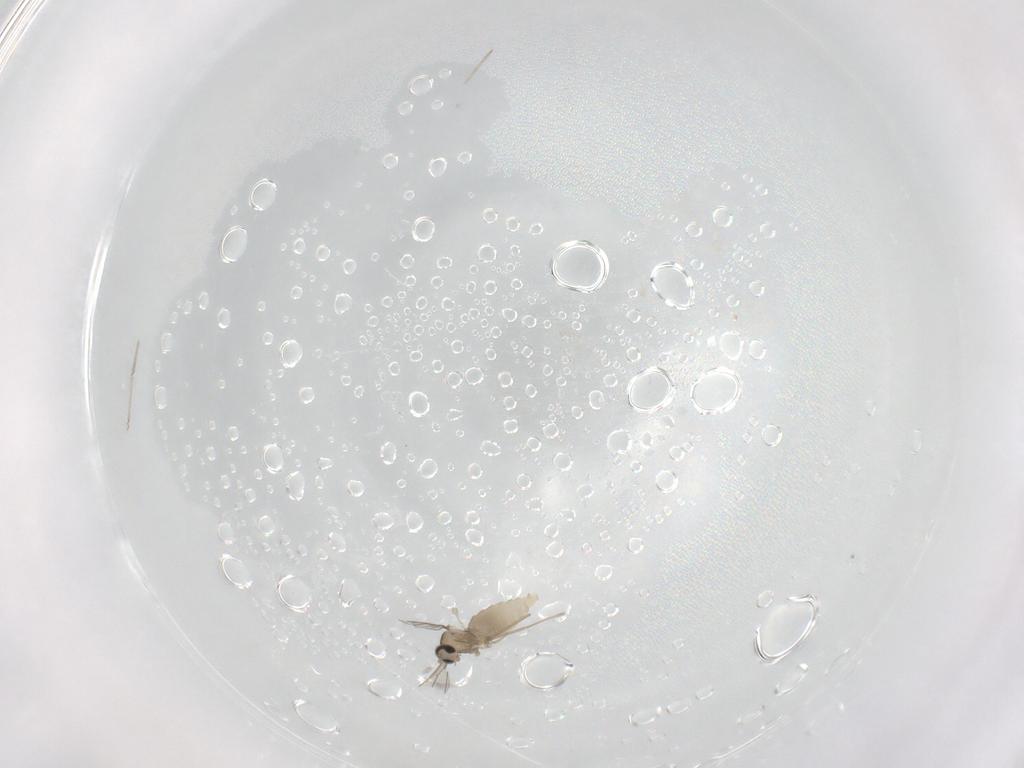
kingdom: Animalia
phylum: Arthropoda
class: Insecta
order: Diptera
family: Cecidomyiidae
